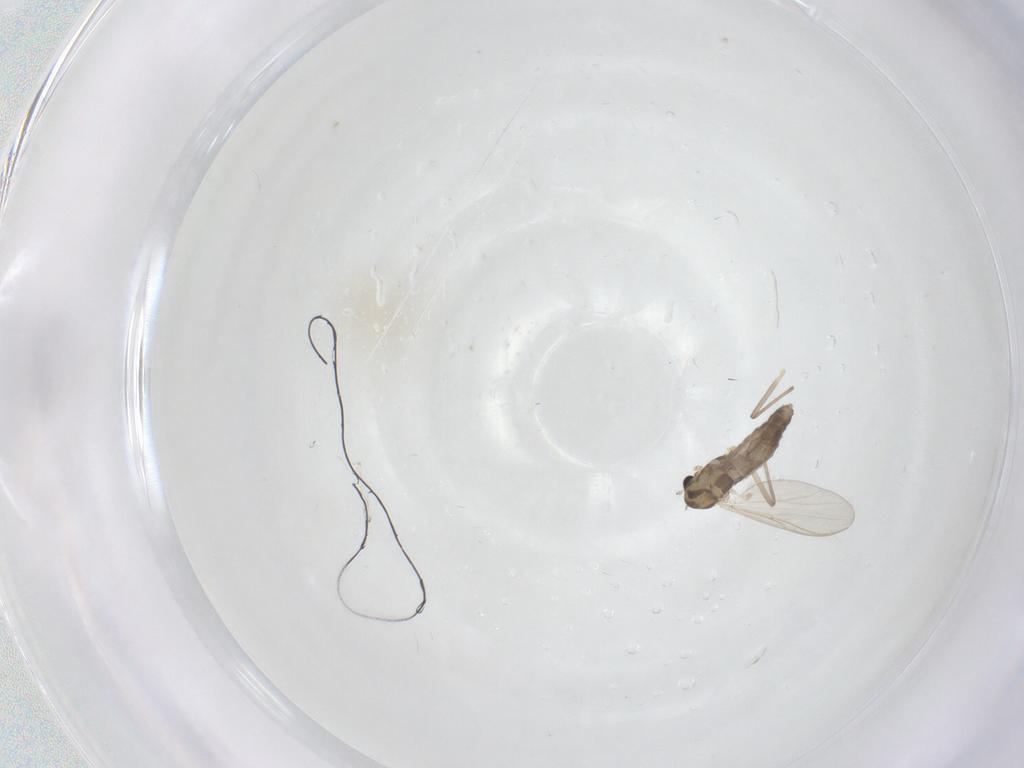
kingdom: Animalia
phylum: Arthropoda
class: Insecta
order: Diptera
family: Chironomidae
